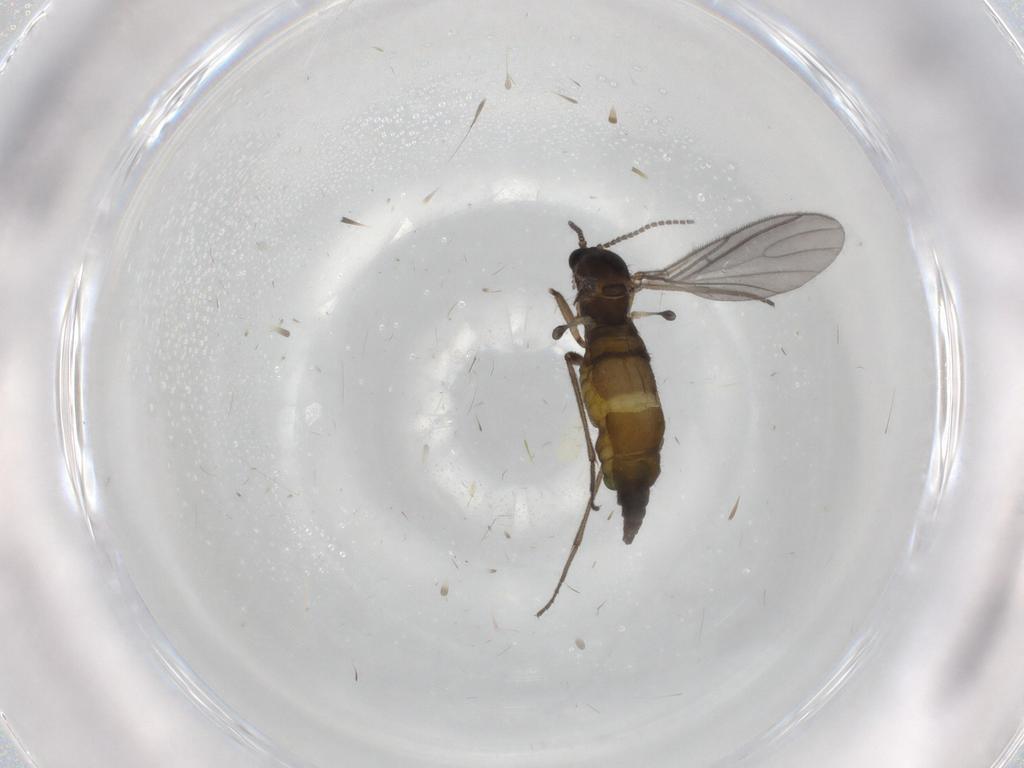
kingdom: Animalia
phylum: Arthropoda
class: Insecta
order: Diptera
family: Sciaridae
